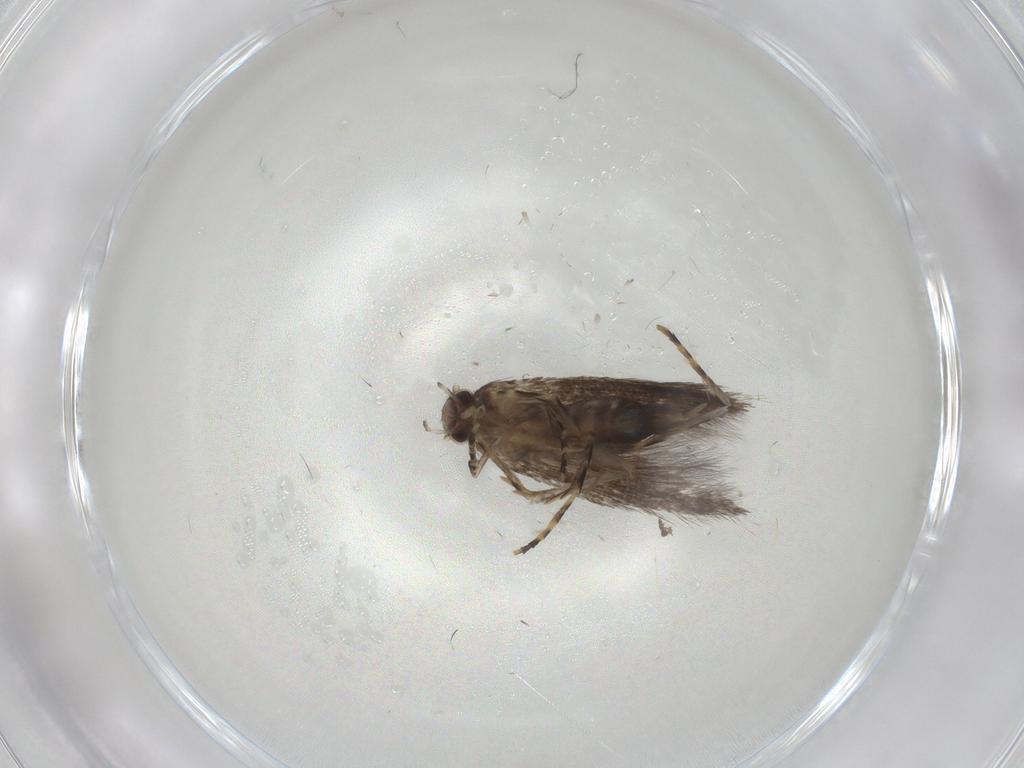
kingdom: Animalia
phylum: Arthropoda
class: Insecta
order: Lepidoptera
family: Elachistidae
